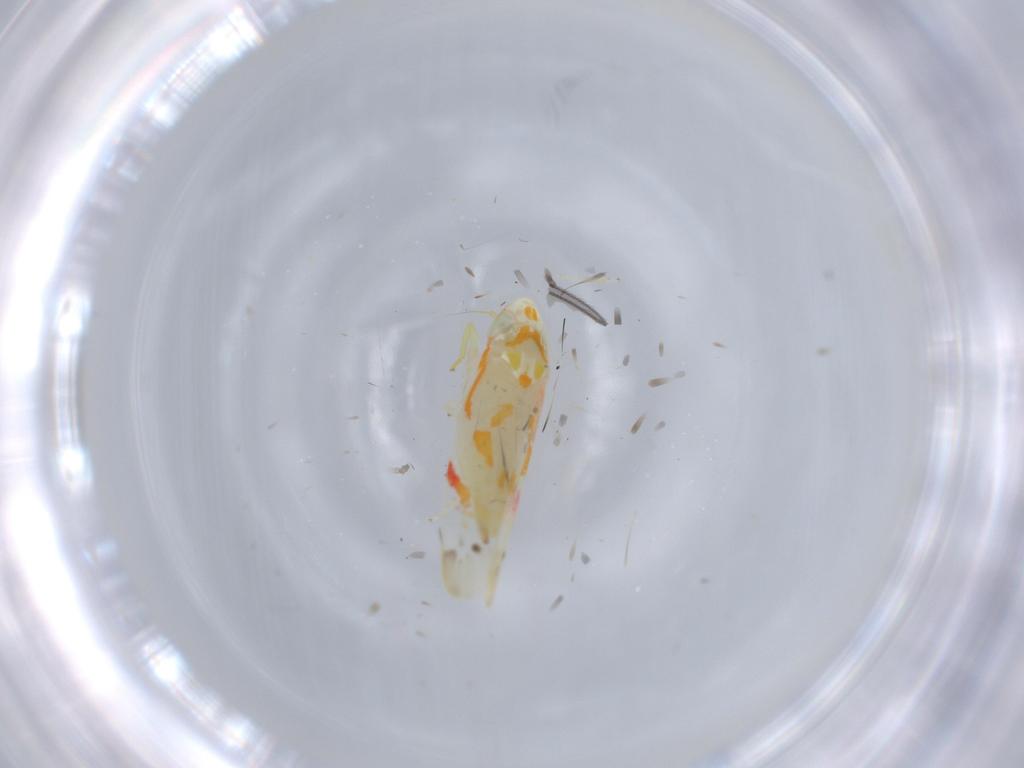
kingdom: Animalia
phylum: Arthropoda
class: Insecta
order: Hemiptera
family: Cicadellidae
